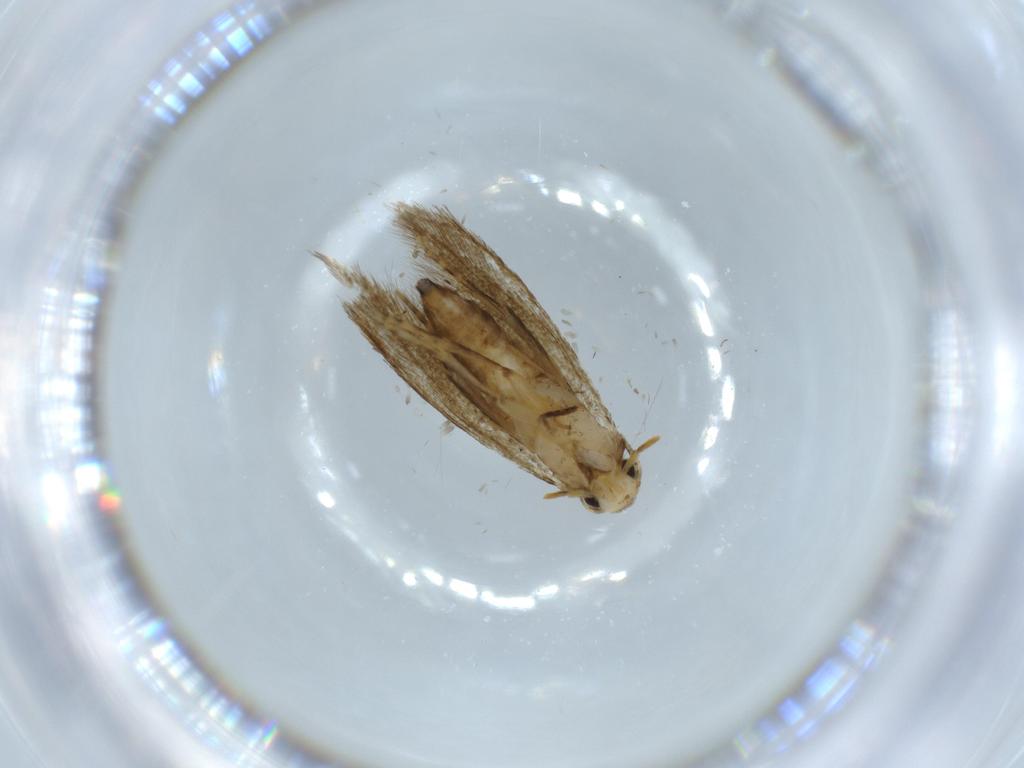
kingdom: Animalia
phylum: Arthropoda
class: Insecta
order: Lepidoptera
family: Tineidae
